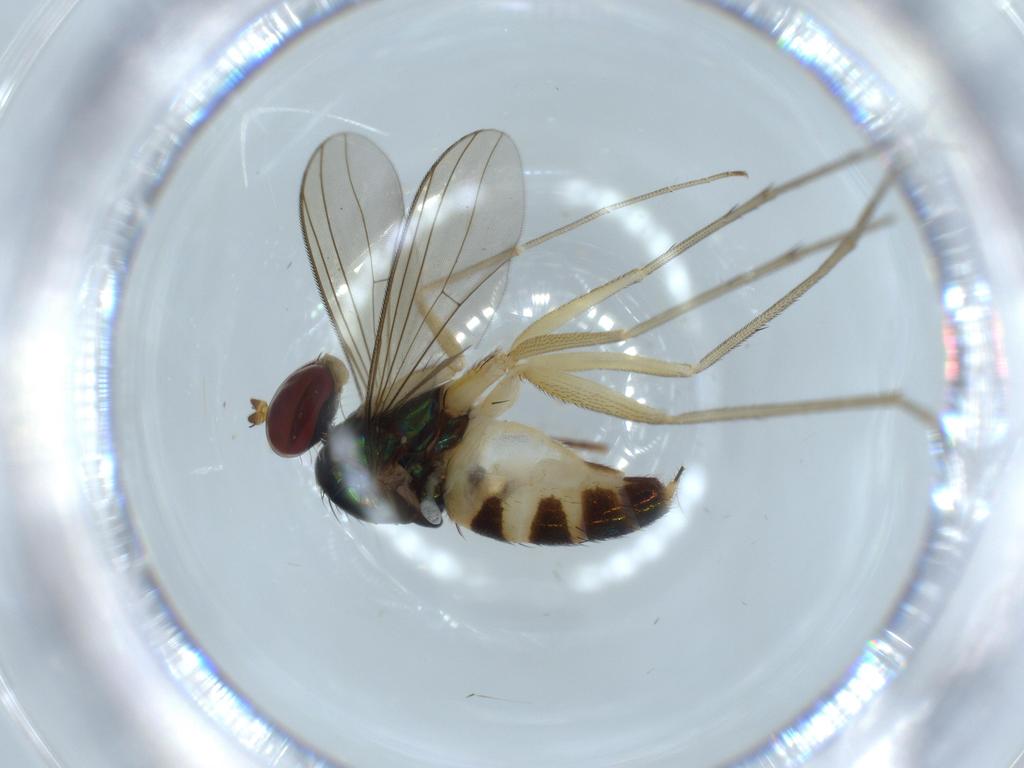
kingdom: Animalia
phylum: Arthropoda
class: Insecta
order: Diptera
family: Dolichopodidae
